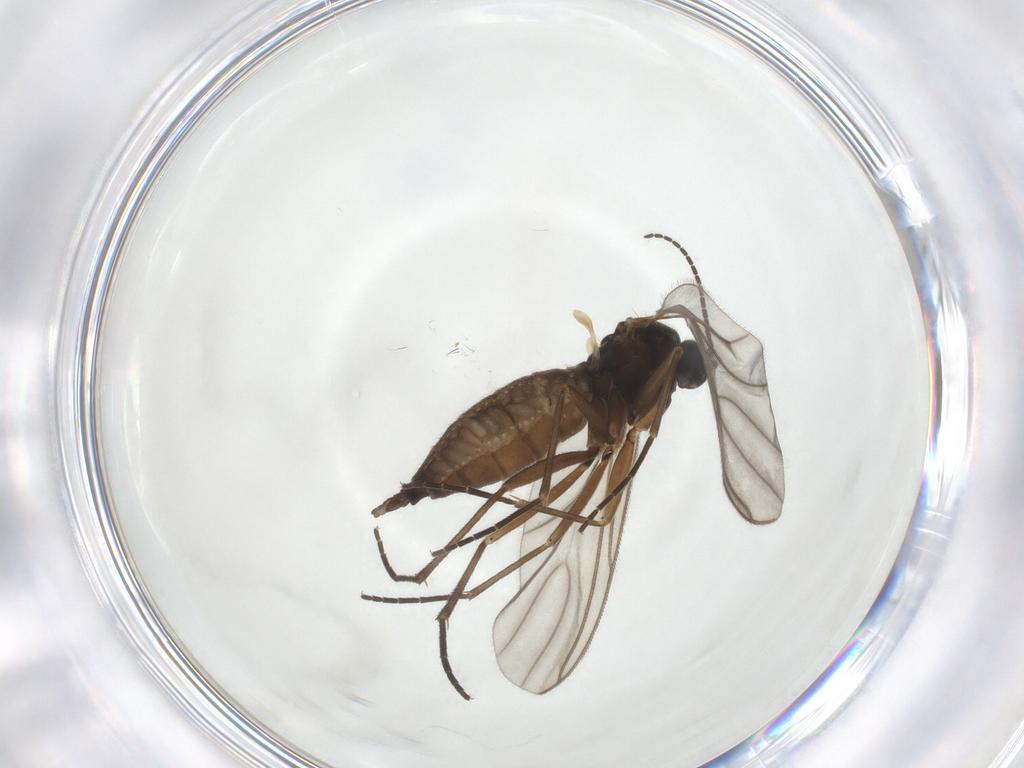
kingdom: Animalia
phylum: Arthropoda
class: Insecta
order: Diptera
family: Sciaridae
